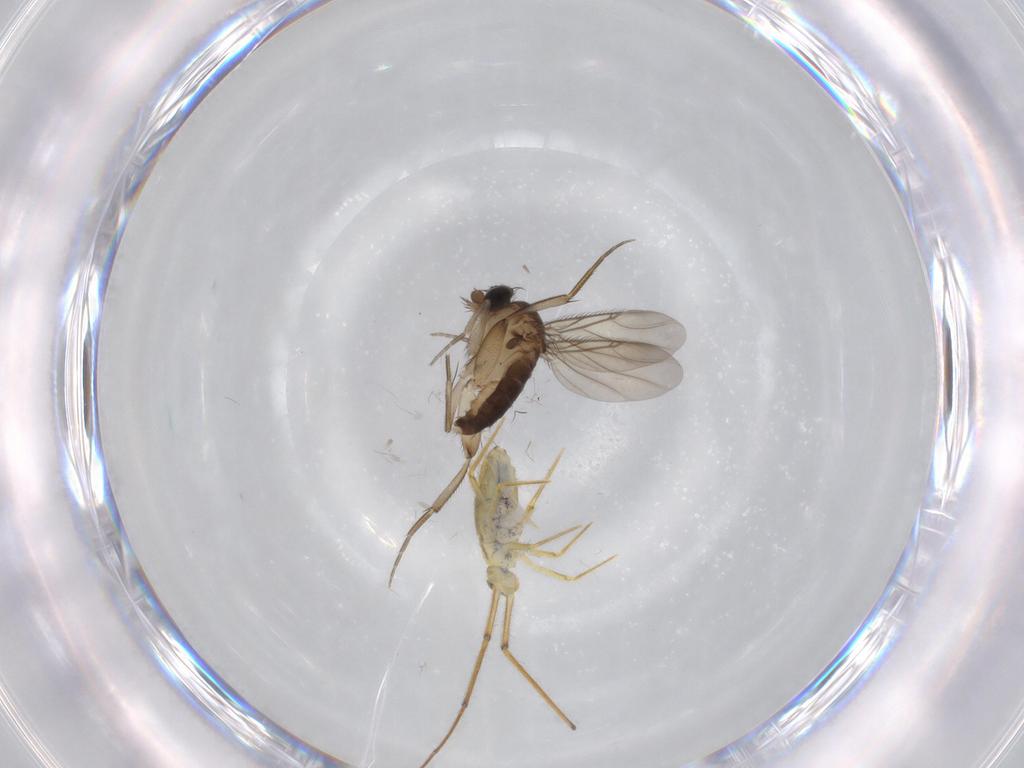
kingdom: Animalia
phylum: Arthropoda
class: Insecta
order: Diptera
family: Phoridae
